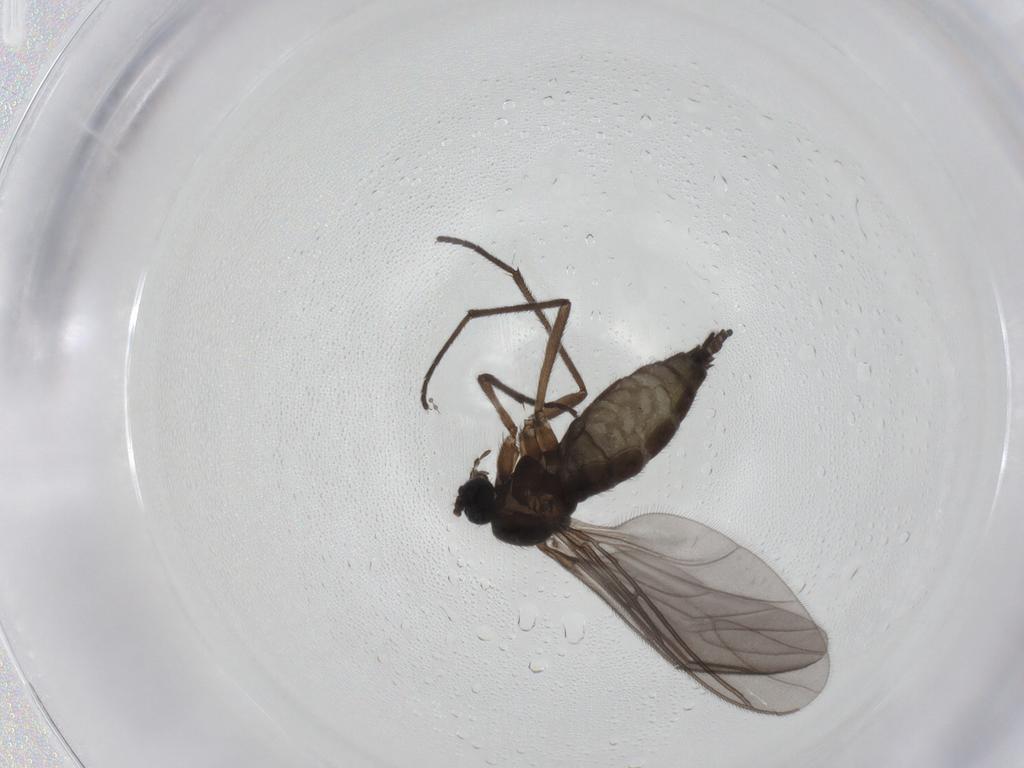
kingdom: Animalia
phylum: Arthropoda
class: Insecta
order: Diptera
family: Sciaridae
